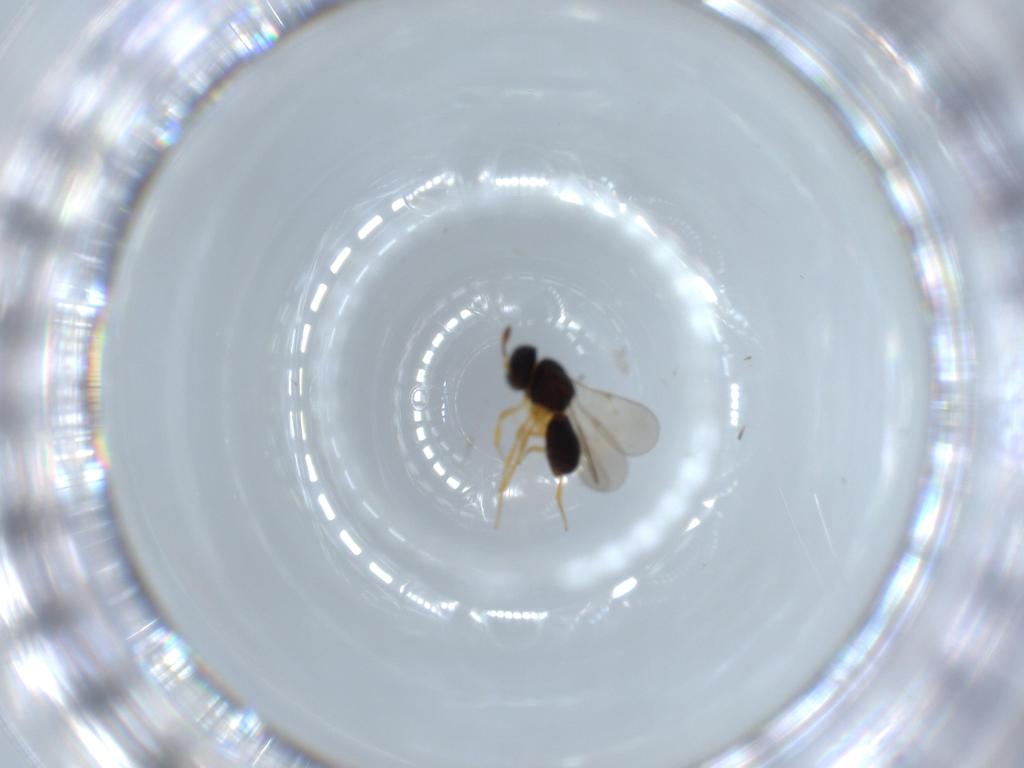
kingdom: Animalia
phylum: Arthropoda
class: Insecta
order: Hymenoptera
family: Scelionidae
